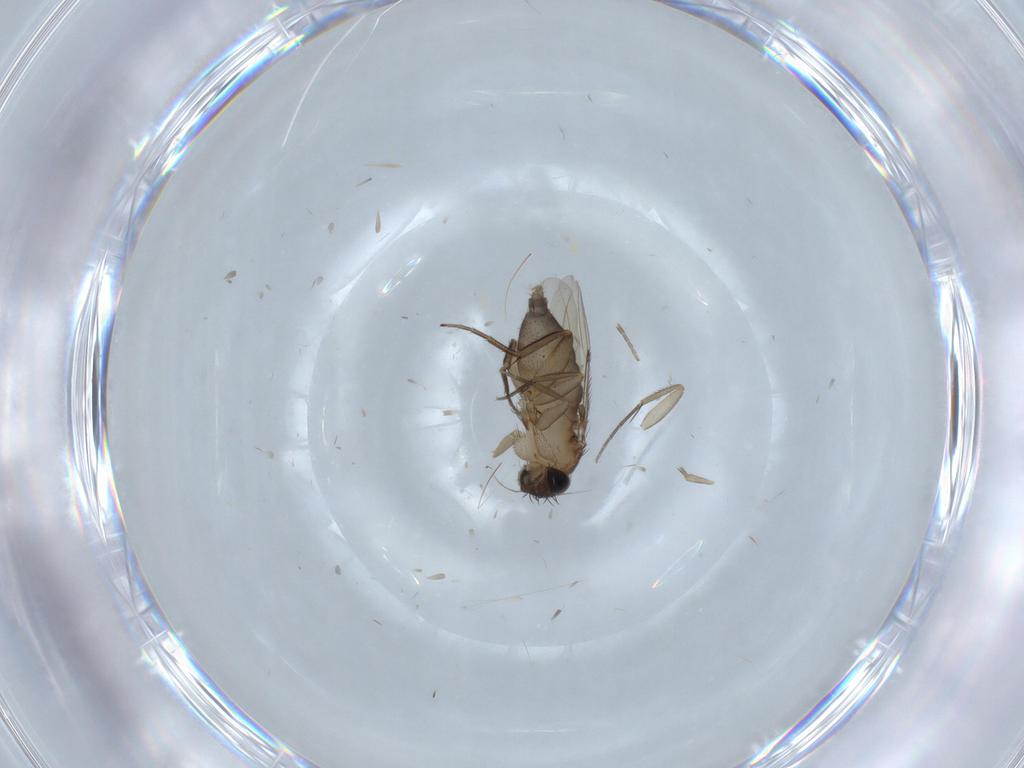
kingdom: Animalia
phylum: Arthropoda
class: Insecta
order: Diptera
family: Phoridae
